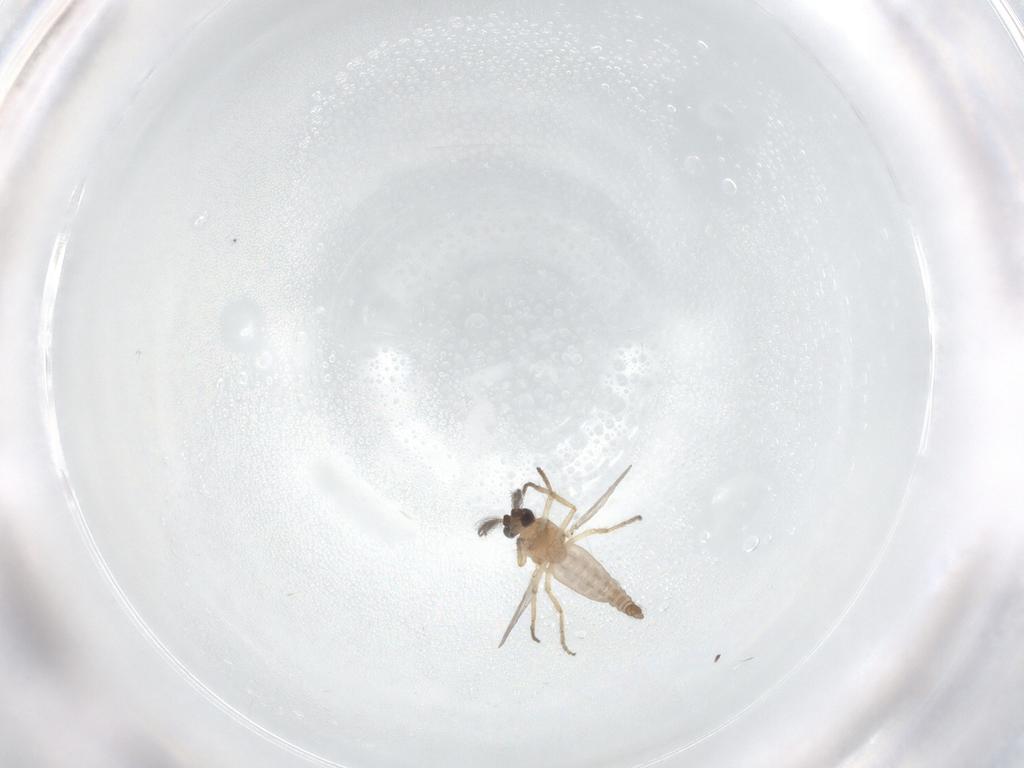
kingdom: Animalia
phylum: Arthropoda
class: Insecta
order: Diptera
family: Ceratopogonidae
